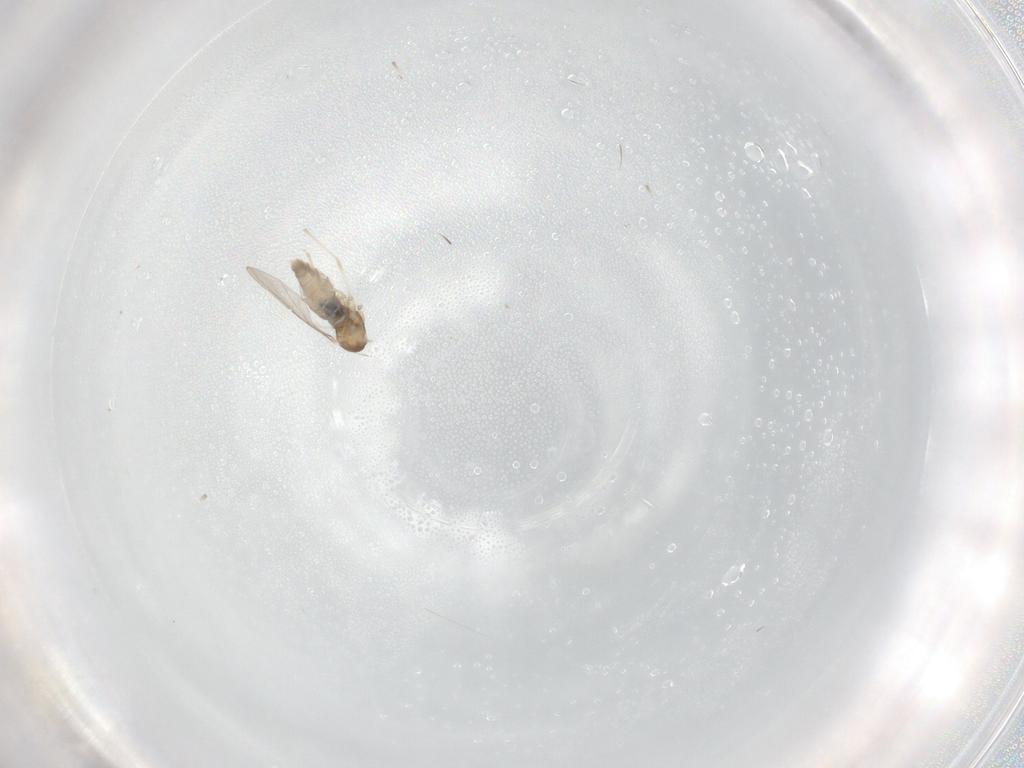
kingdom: Animalia
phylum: Arthropoda
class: Insecta
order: Diptera
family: Cecidomyiidae
